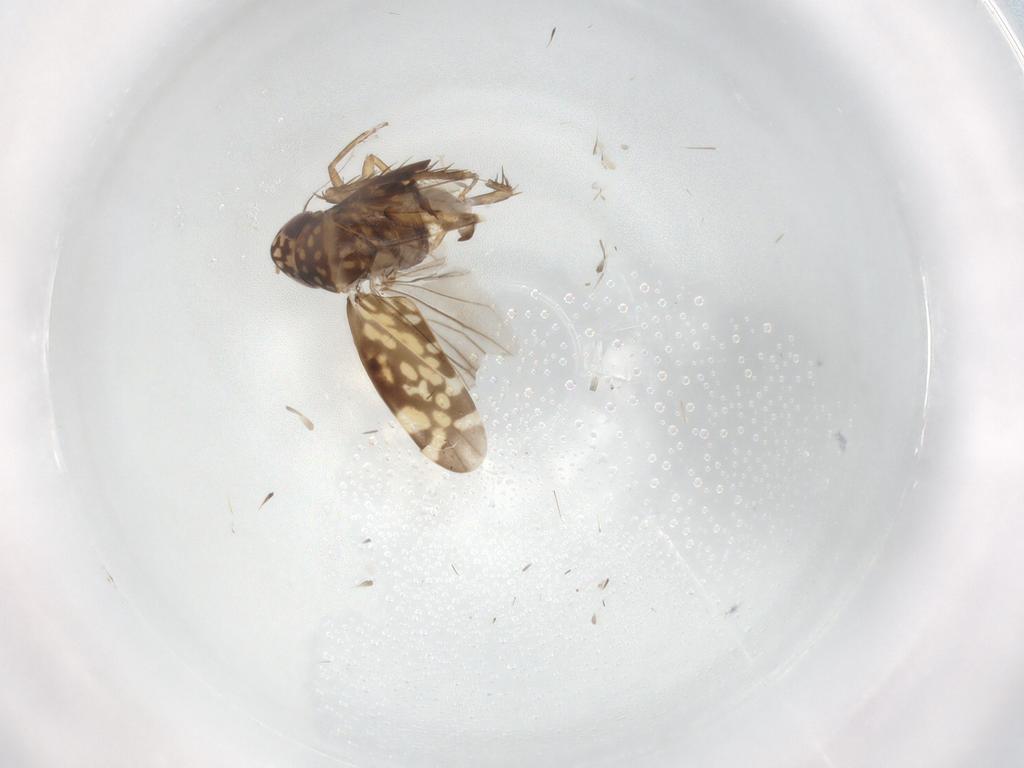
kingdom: Animalia
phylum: Arthropoda
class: Insecta
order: Hemiptera
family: Cicadellidae
